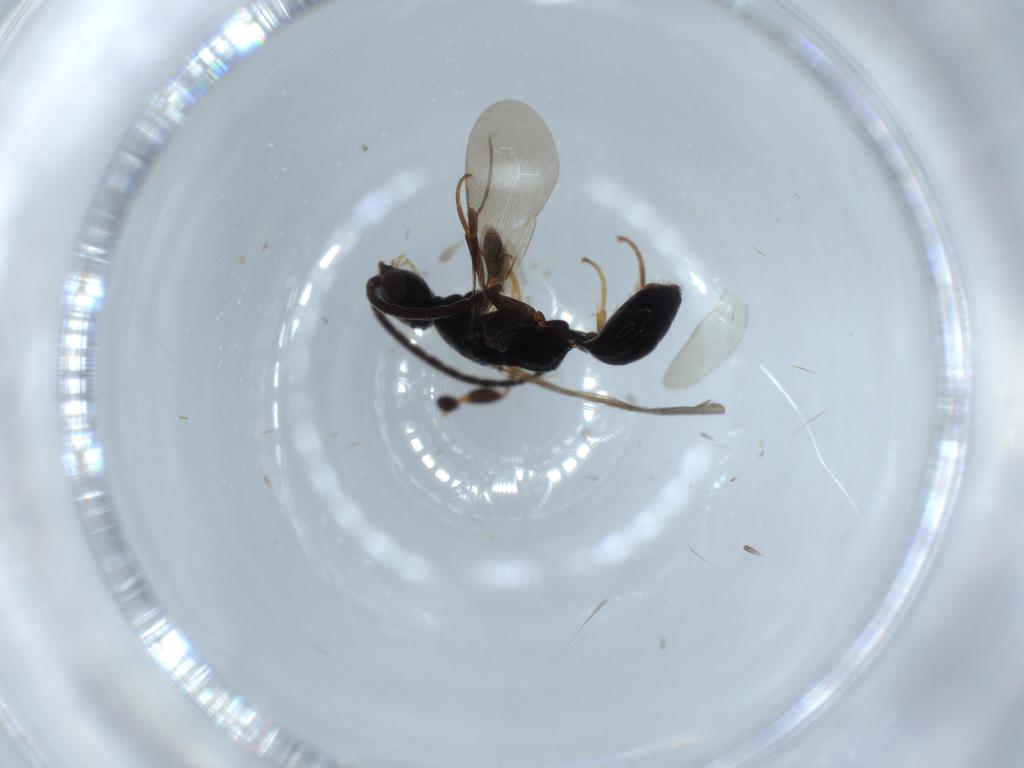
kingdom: Animalia
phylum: Arthropoda
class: Insecta
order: Hymenoptera
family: Bethylidae
